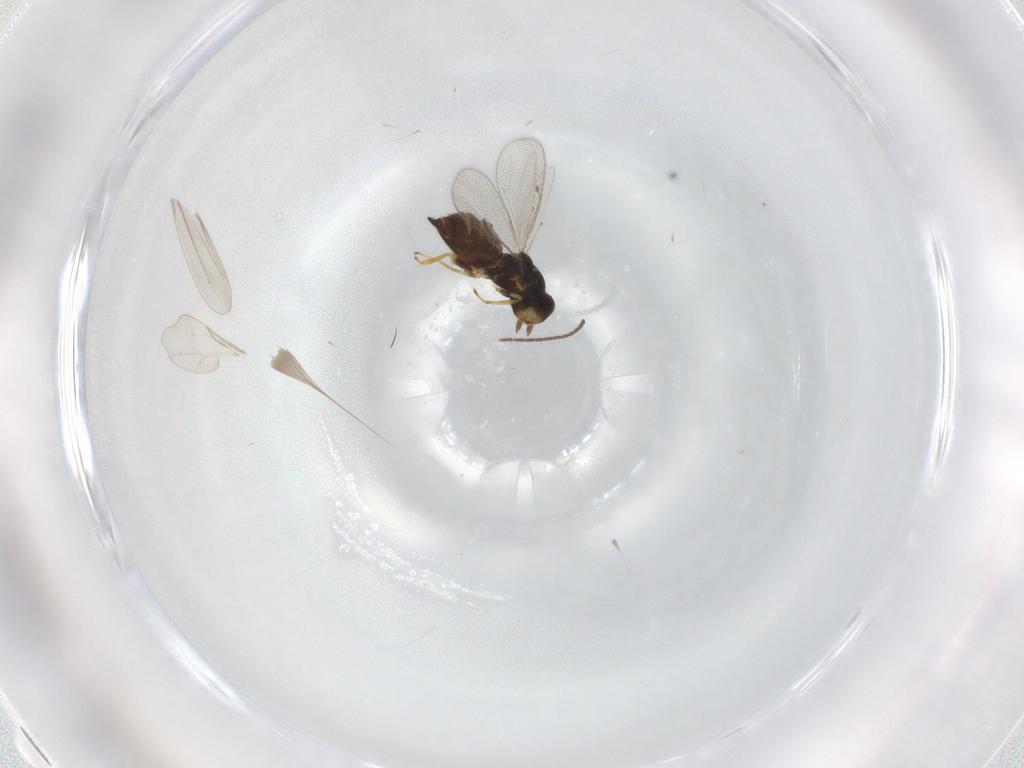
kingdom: Animalia
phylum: Arthropoda
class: Insecta
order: Hymenoptera
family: Eulophidae
